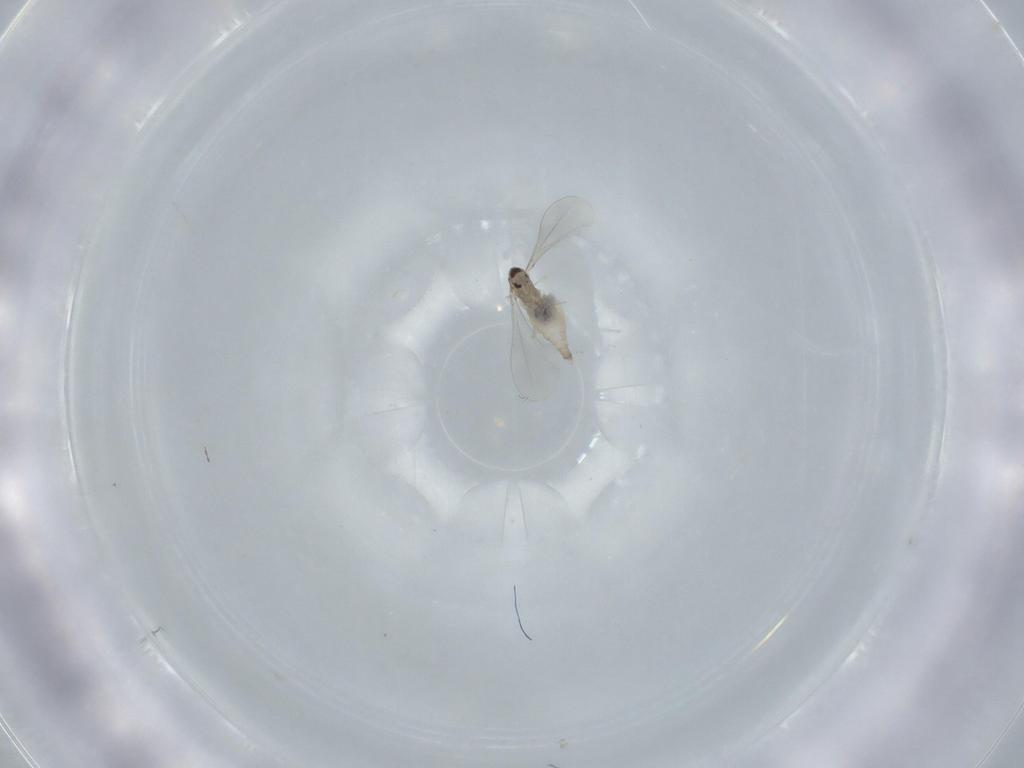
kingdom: Animalia
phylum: Arthropoda
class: Insecta
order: Diptera
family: Cecidomyiidae
